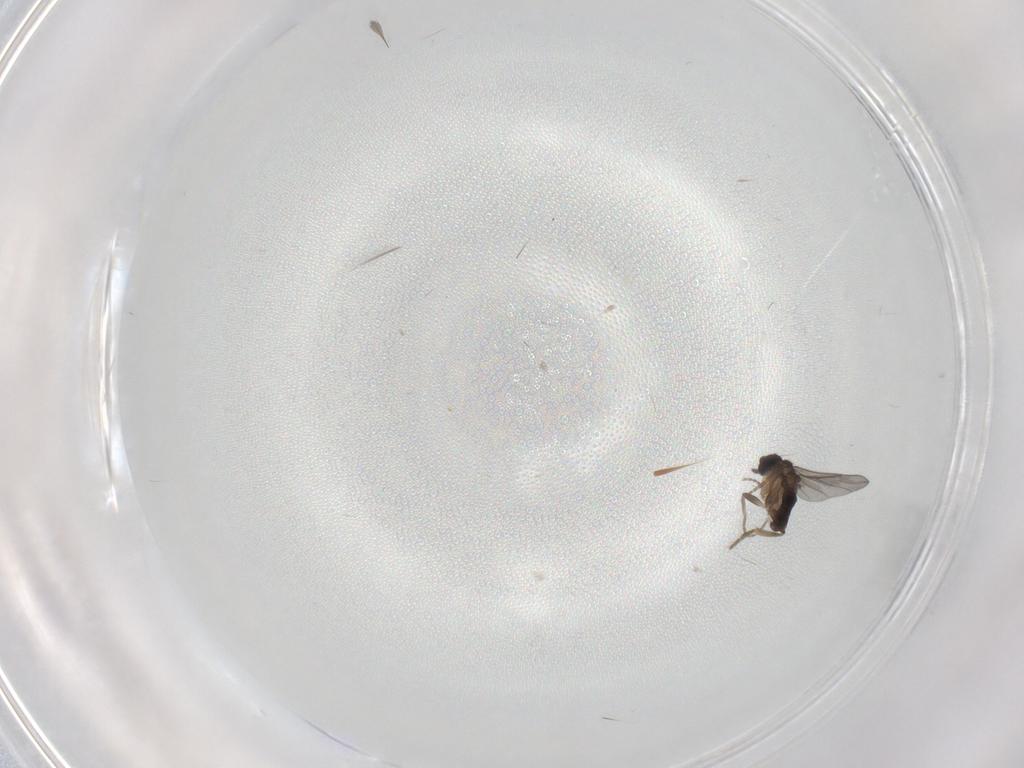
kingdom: Animalia
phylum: Arthropoda
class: Insecta
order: Diptera
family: Cecidomyiidae
